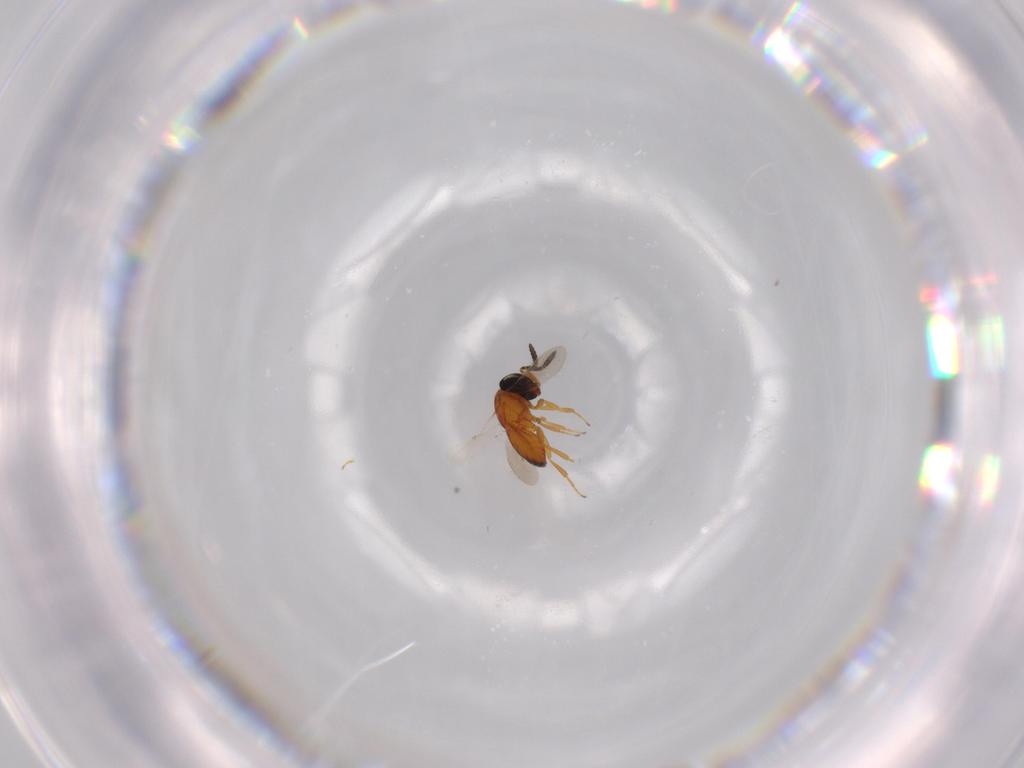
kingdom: Animalia
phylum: Arthropoda
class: Insecta
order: Hymenoptera
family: Scelionidae
